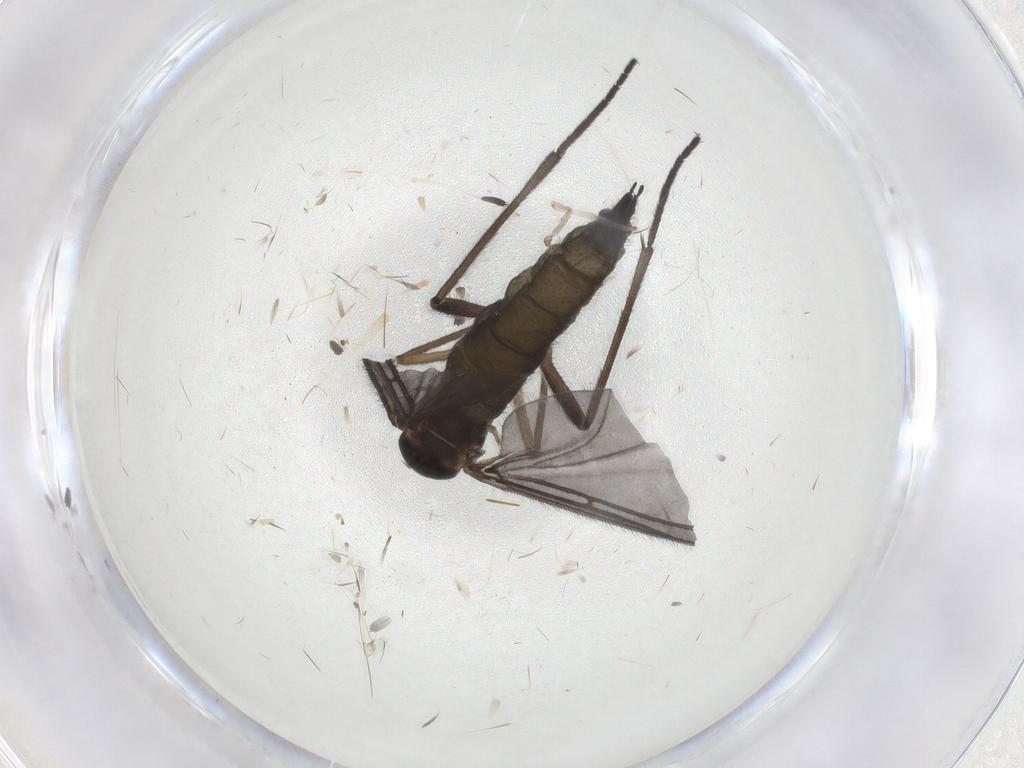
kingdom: Animalia
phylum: Arthropoda
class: Insecta
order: Diptera
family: Sciaridae
